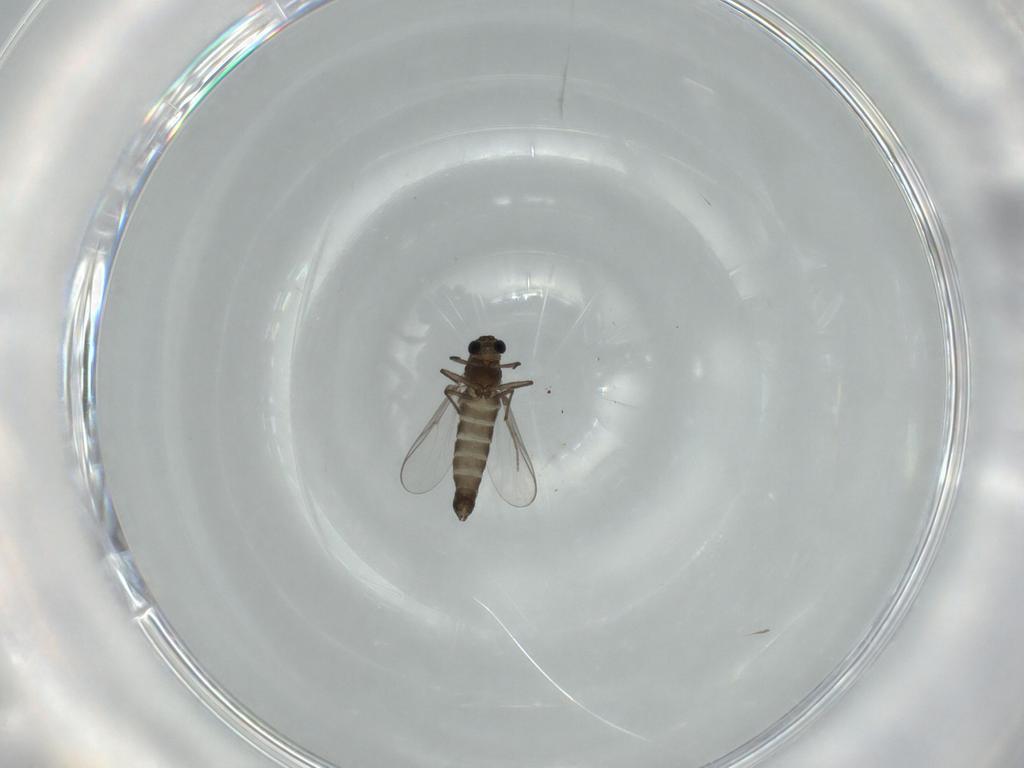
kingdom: Animalia
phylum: Arthropoda
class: Insecta
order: Diptera
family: Chironomidae
